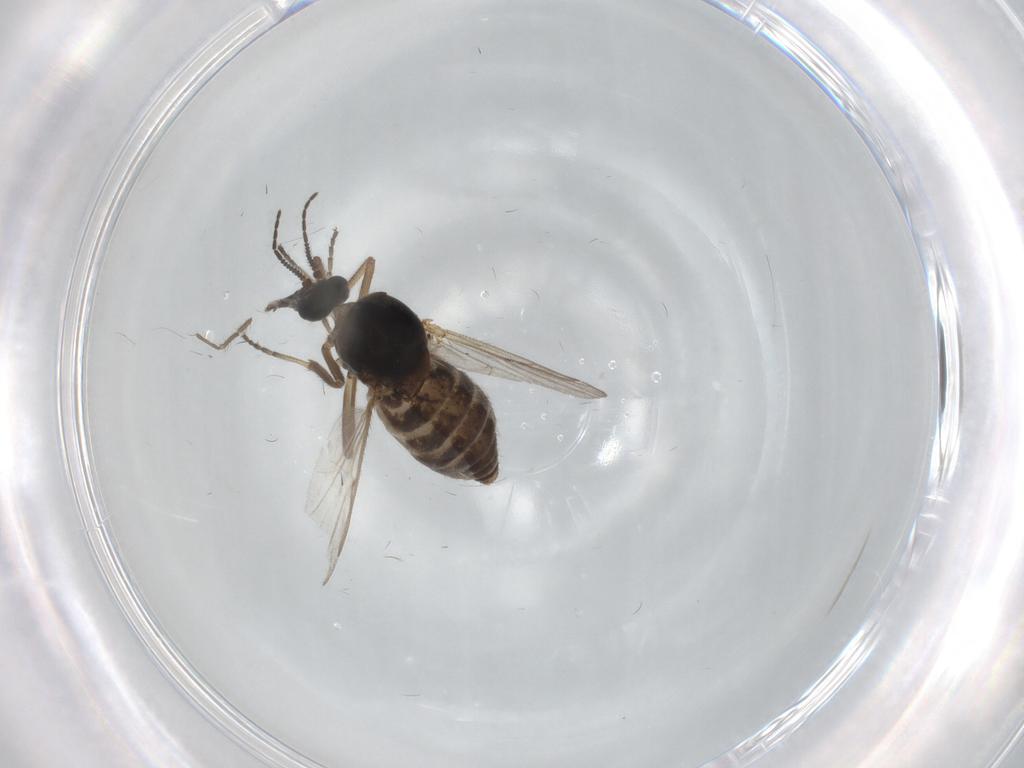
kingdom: Animalia
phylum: Arthropoda
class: Insecta
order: Diptera
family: Ceratopogonidae
